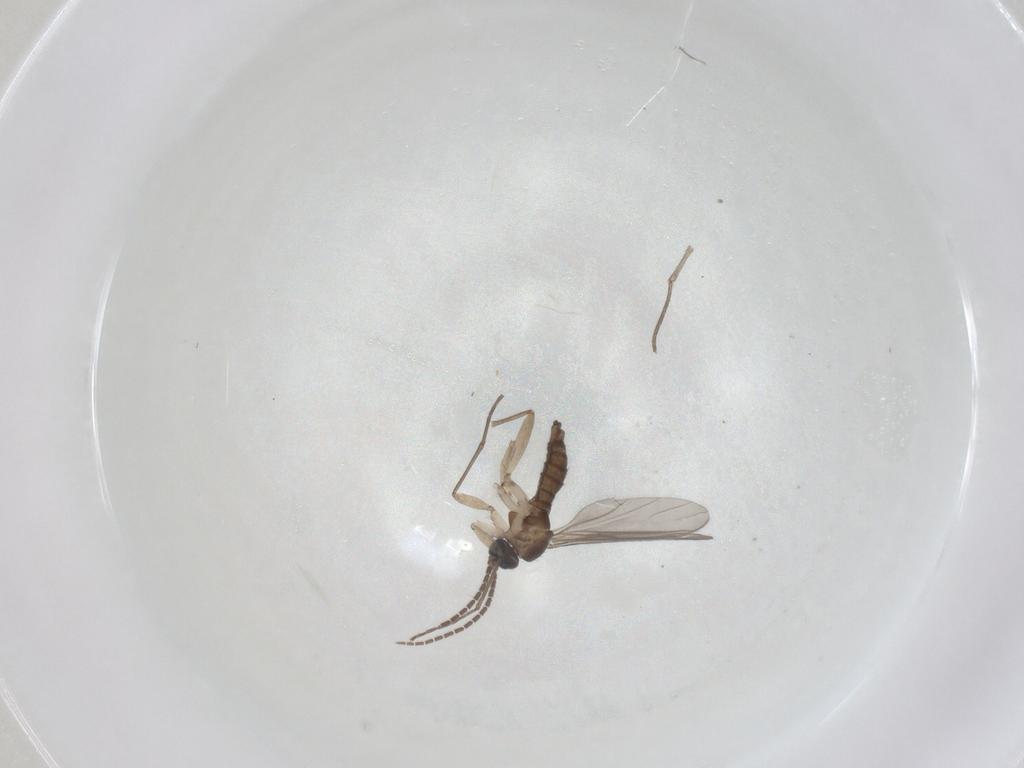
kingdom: Animalia
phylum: Arthropoda
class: Insecta
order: Diptera
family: Sciaridae
